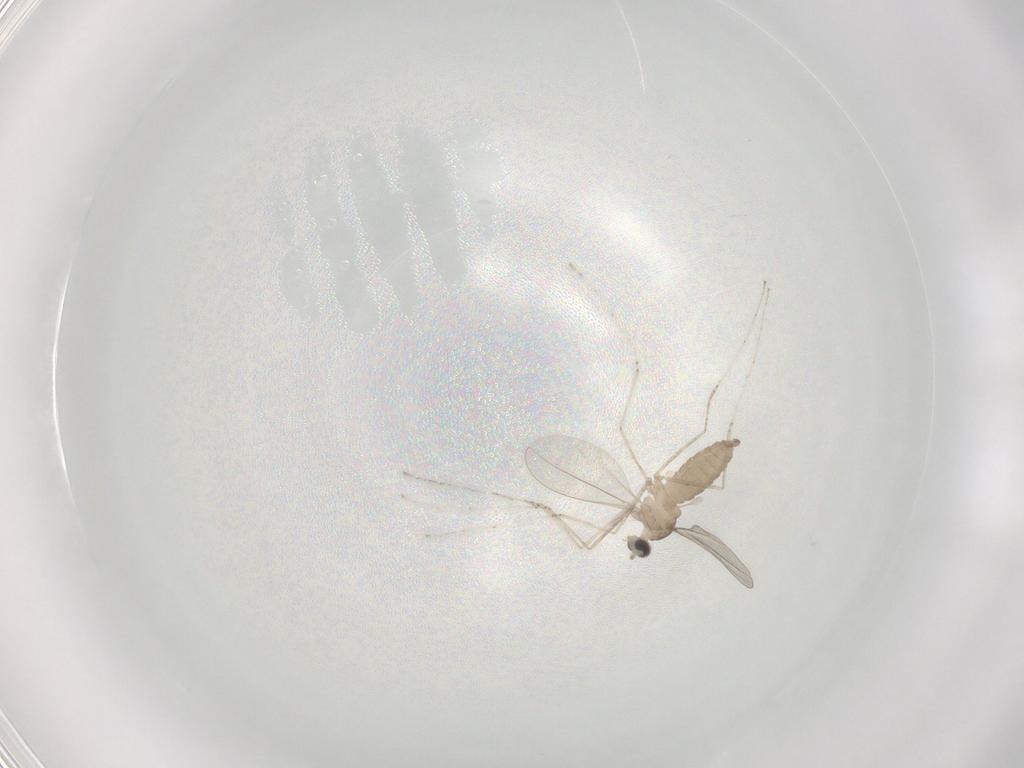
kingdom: Animalia
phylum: Arthropoda
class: Insecta
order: Diptera
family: Cecidomyiidae
